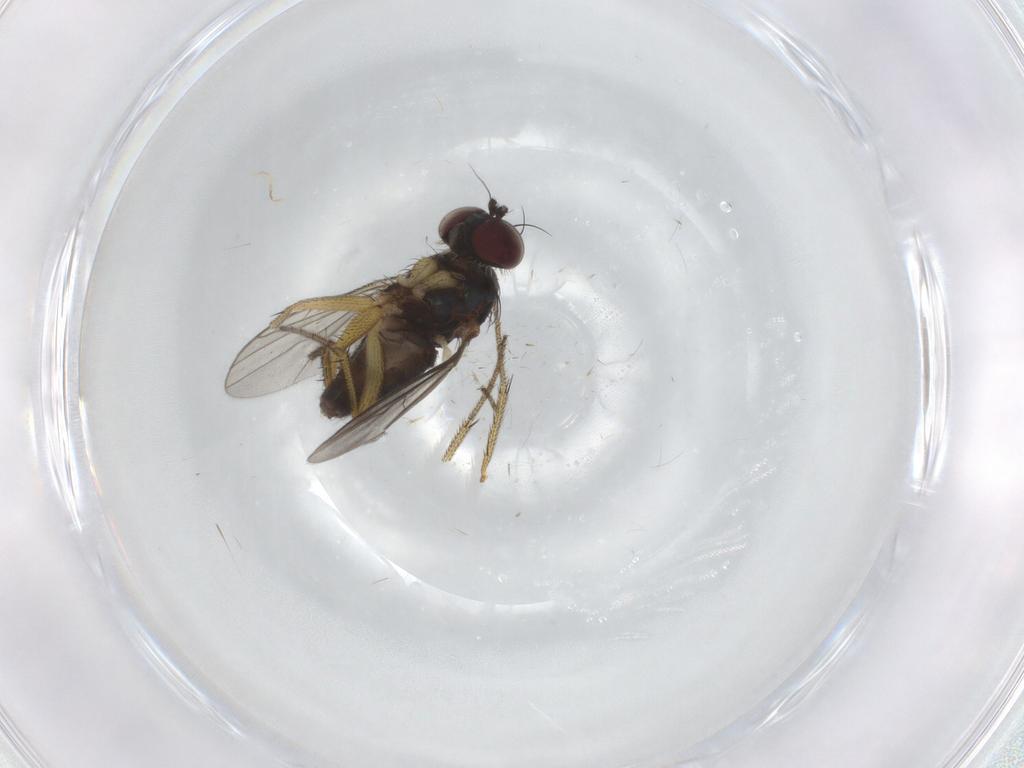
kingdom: Animalia
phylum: Arthropoda
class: Insecta
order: Diptera
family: Dolichopodidae
